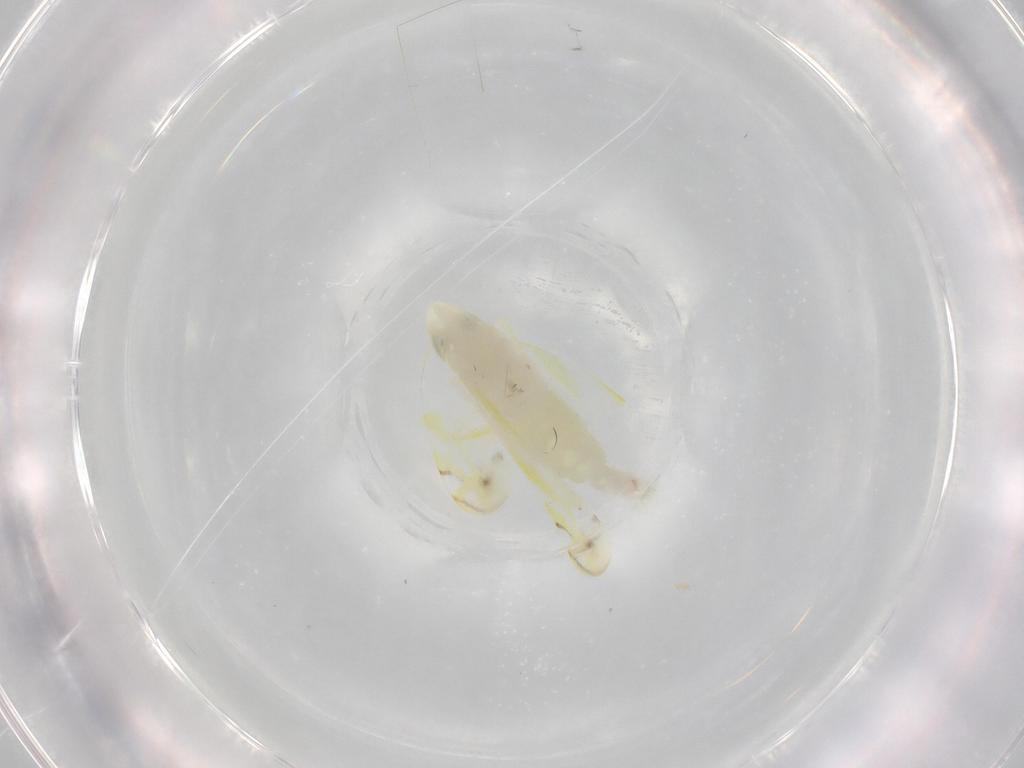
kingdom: Animalia
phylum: Arthropoda
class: Insecta
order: Hemiptera
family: Cicadellidae
